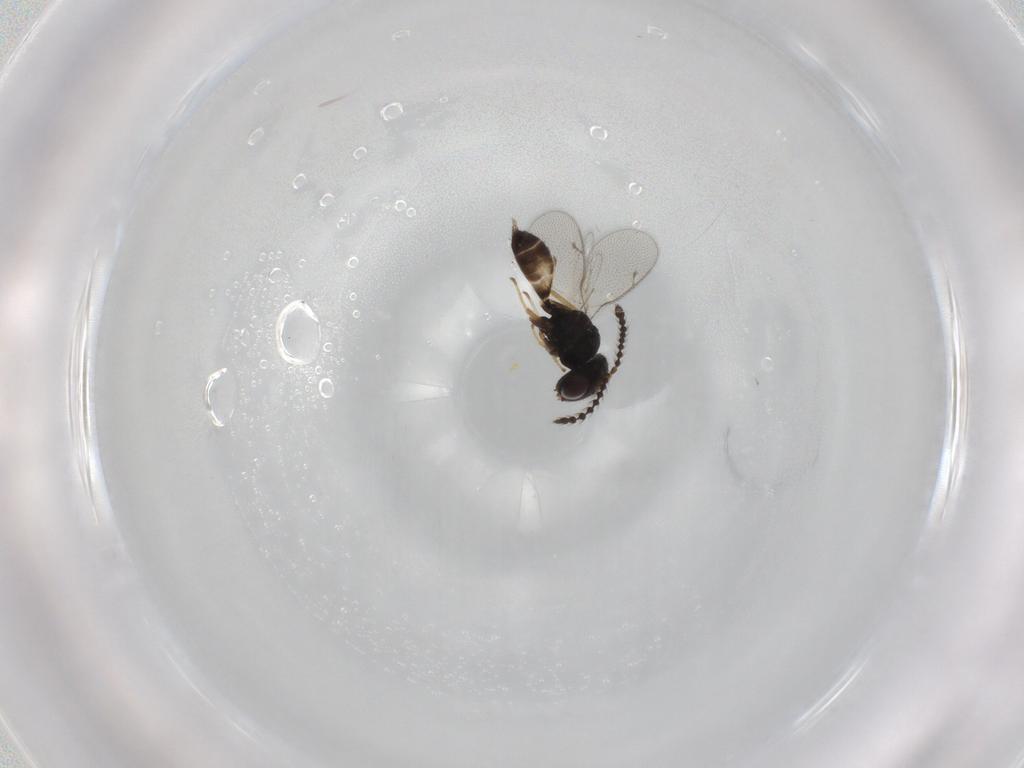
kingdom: Animalia
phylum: Arthropoda
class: Insecta
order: Hymenoptera
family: Pteromalidae
